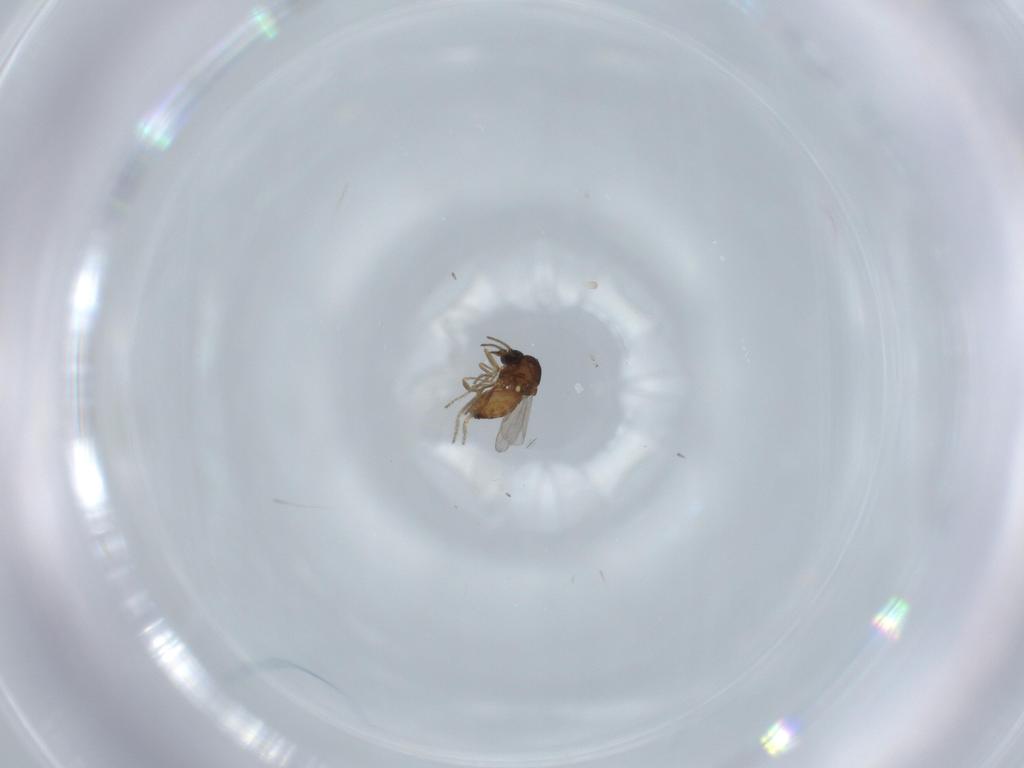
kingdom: Animalia
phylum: Arthropoda
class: Insecta
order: Diptera
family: Ceratopogonidae
